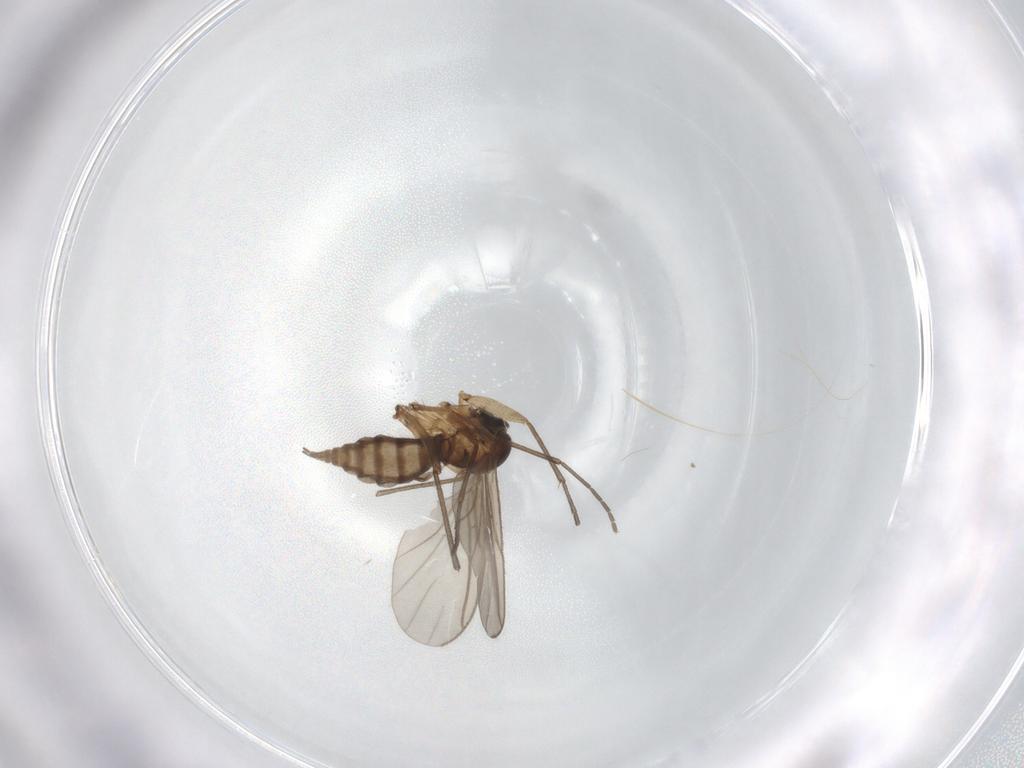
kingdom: Animalia
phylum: Arthropoda
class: Insecta
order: Diptera
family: Sciaridae
